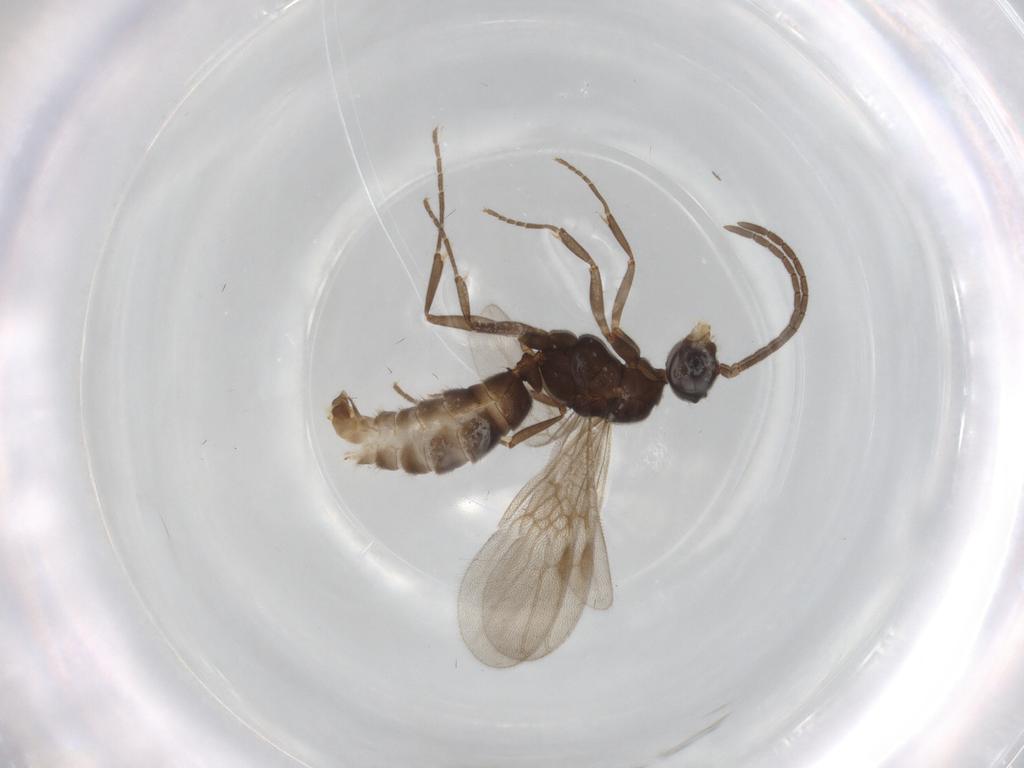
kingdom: Animalia
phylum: Arthropoda
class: Insecta
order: Hymenoptera
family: Formicidae
